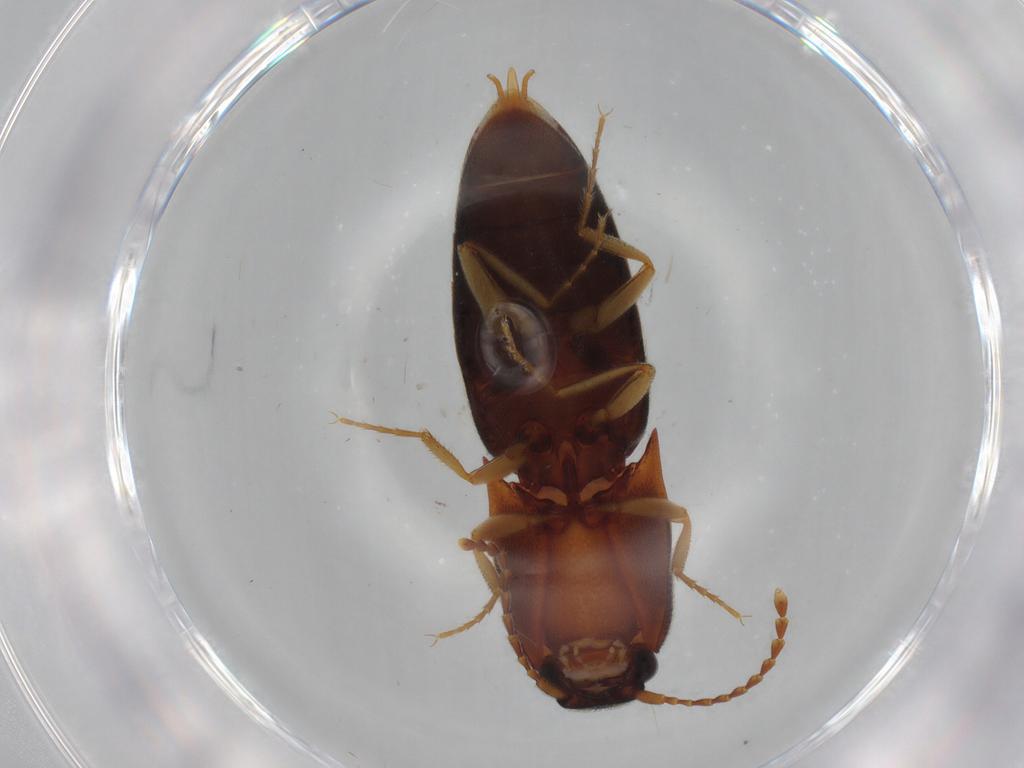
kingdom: Animalia
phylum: Arthropoda
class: Insecta
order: Coleoptera
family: Elateridae
